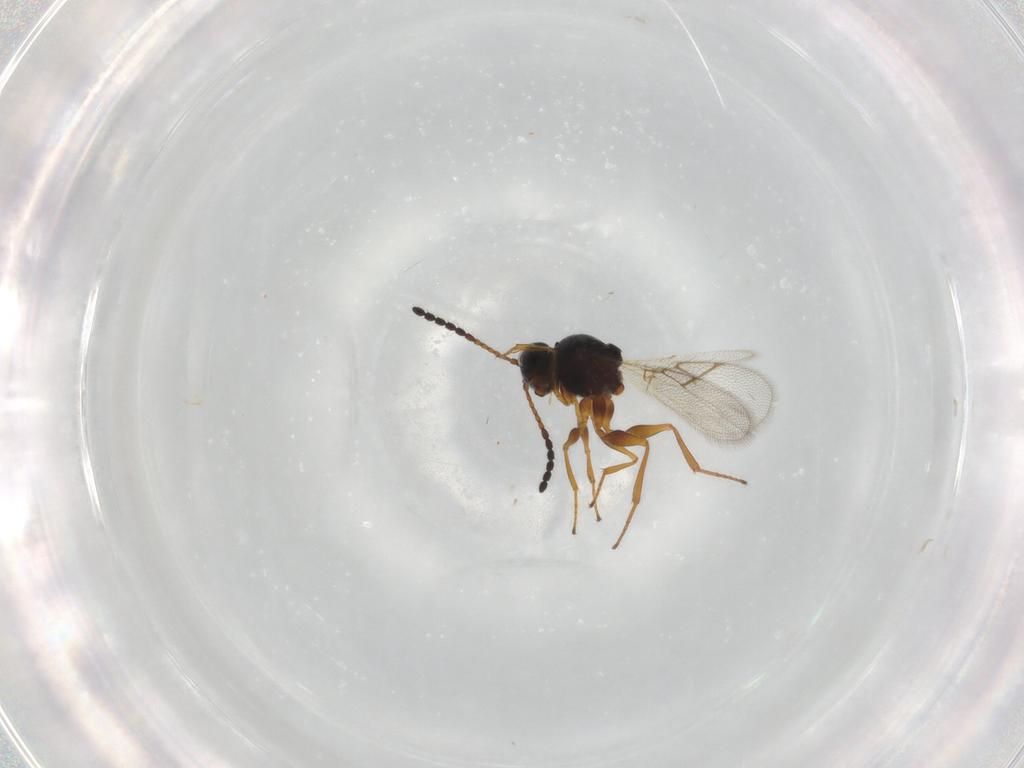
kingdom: Animalia
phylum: Arthropoda
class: Insecta
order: Hymenoptera
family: Figitidae
